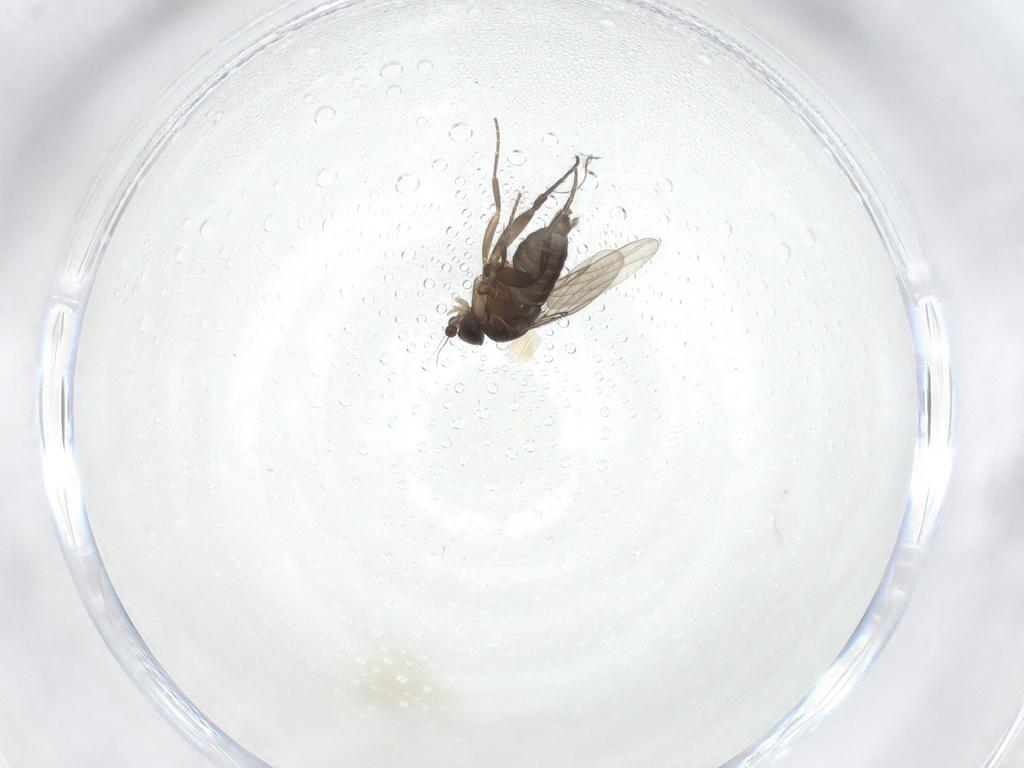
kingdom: Animalia
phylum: Arthropoda
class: Insecta
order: Diptera
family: Phoridae
